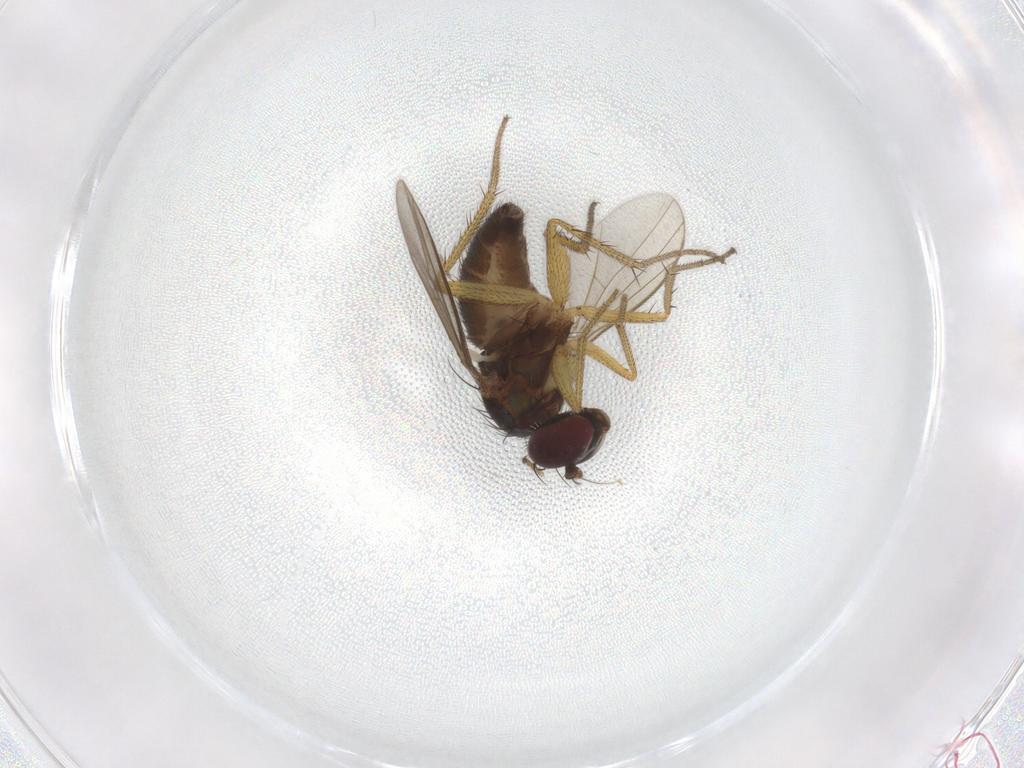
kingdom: Animalia
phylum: Arthropoda
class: Insecta
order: Diptera
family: Dolichopodidae
